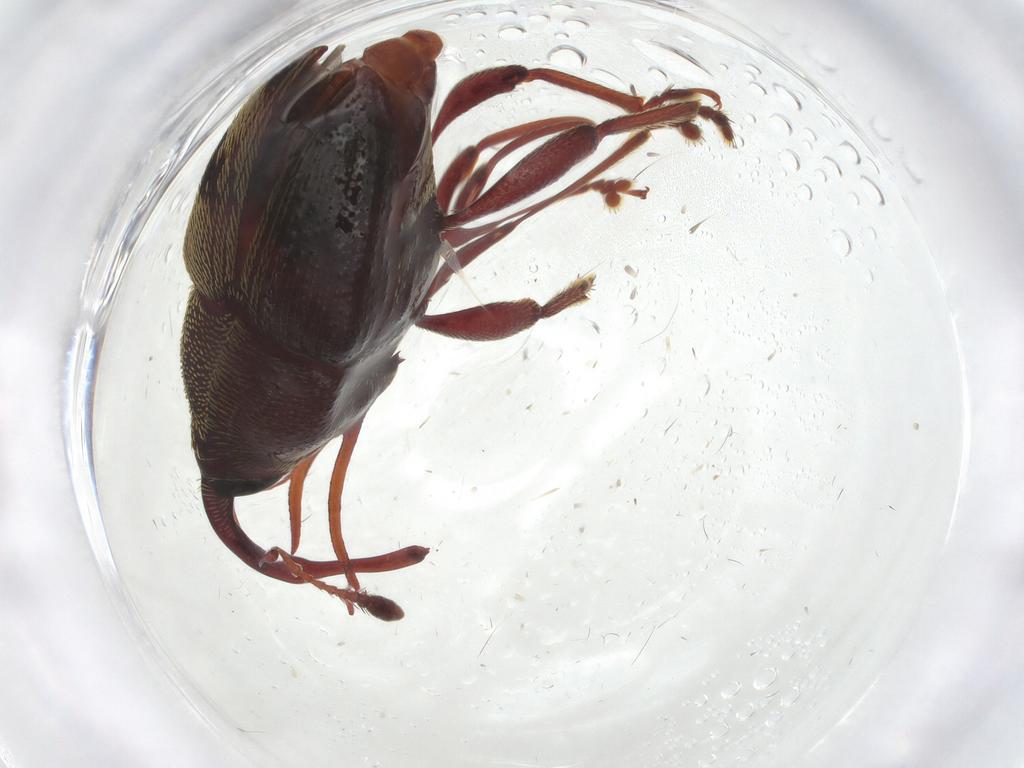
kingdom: Animalia
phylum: Arthropoda
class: Insecta
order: Coleoptera
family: Curculionidae
